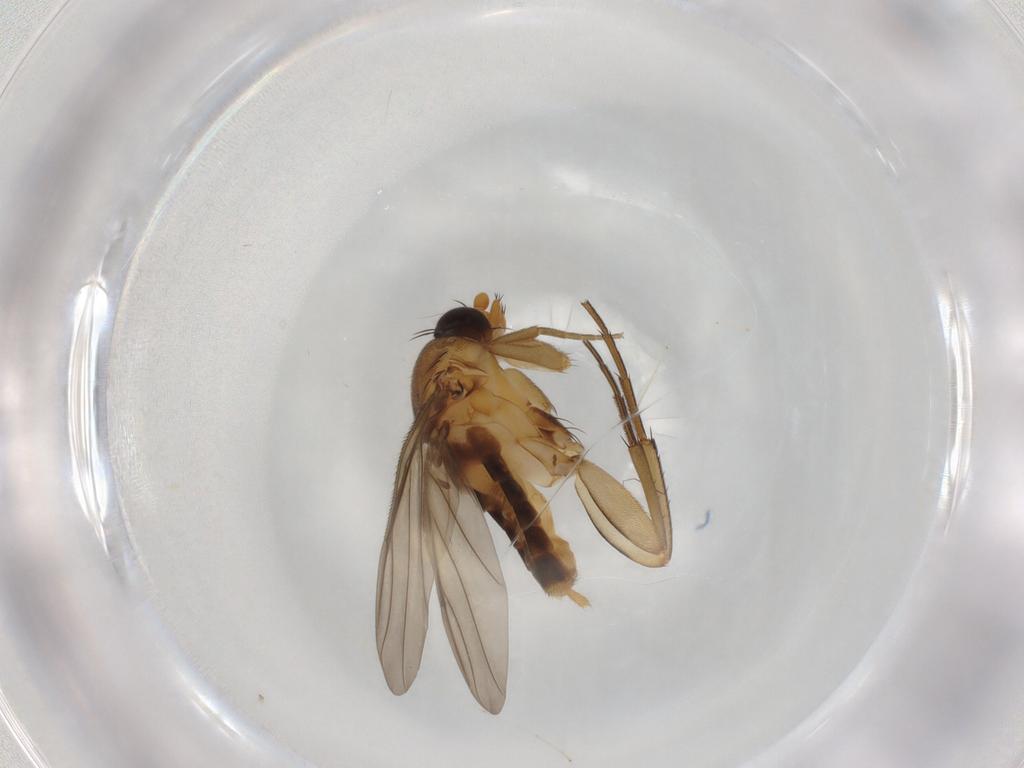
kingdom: Animalia
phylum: Arthropoda
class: Insecta
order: Diptera
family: Cecidomyiidae
